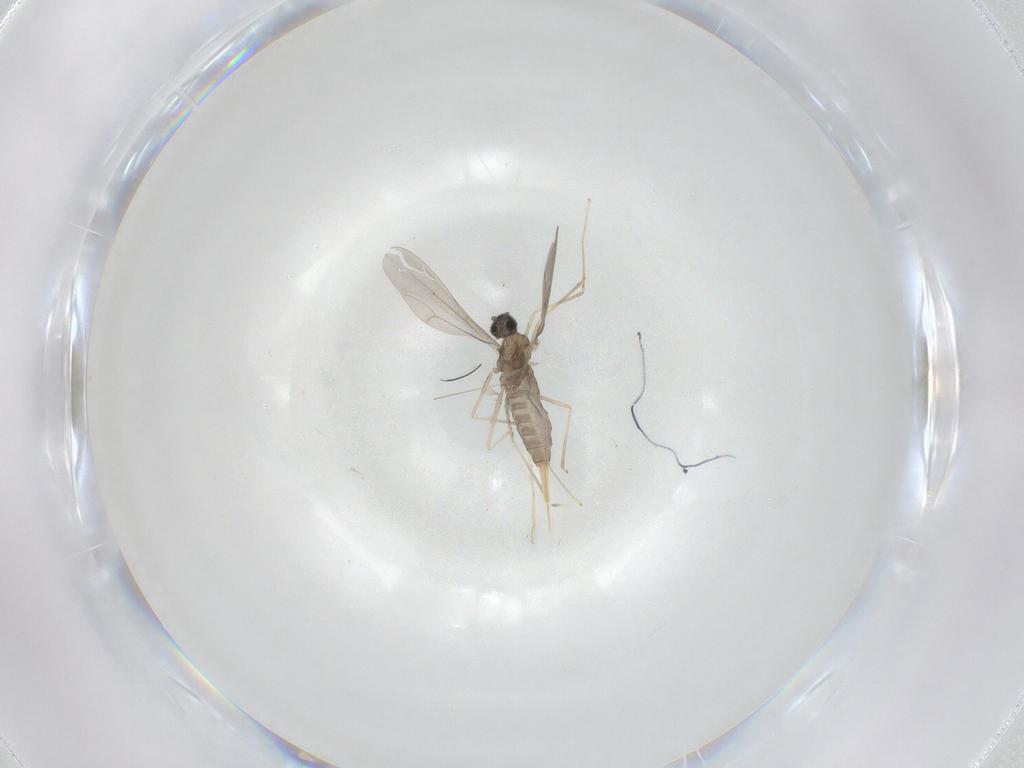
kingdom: Animalia
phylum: Arthropoda
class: Insecta
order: Diptera
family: Cecidomyiidae
